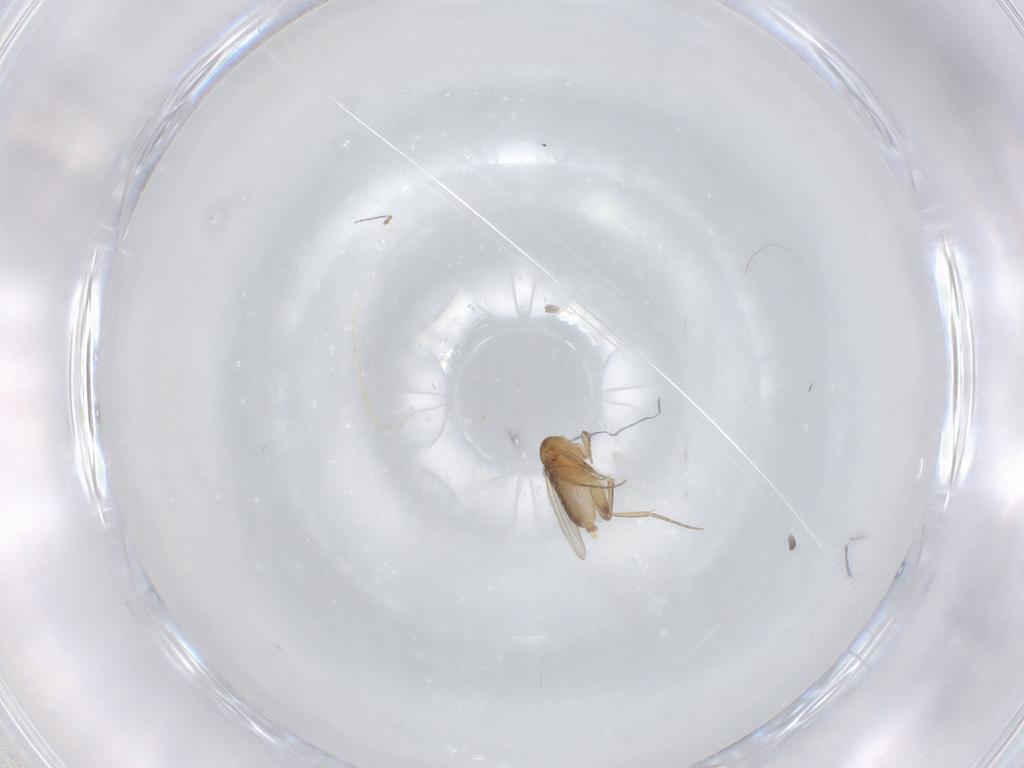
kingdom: Animalia
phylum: Arthropoda
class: Insecta
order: Diptera
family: Phoridae
